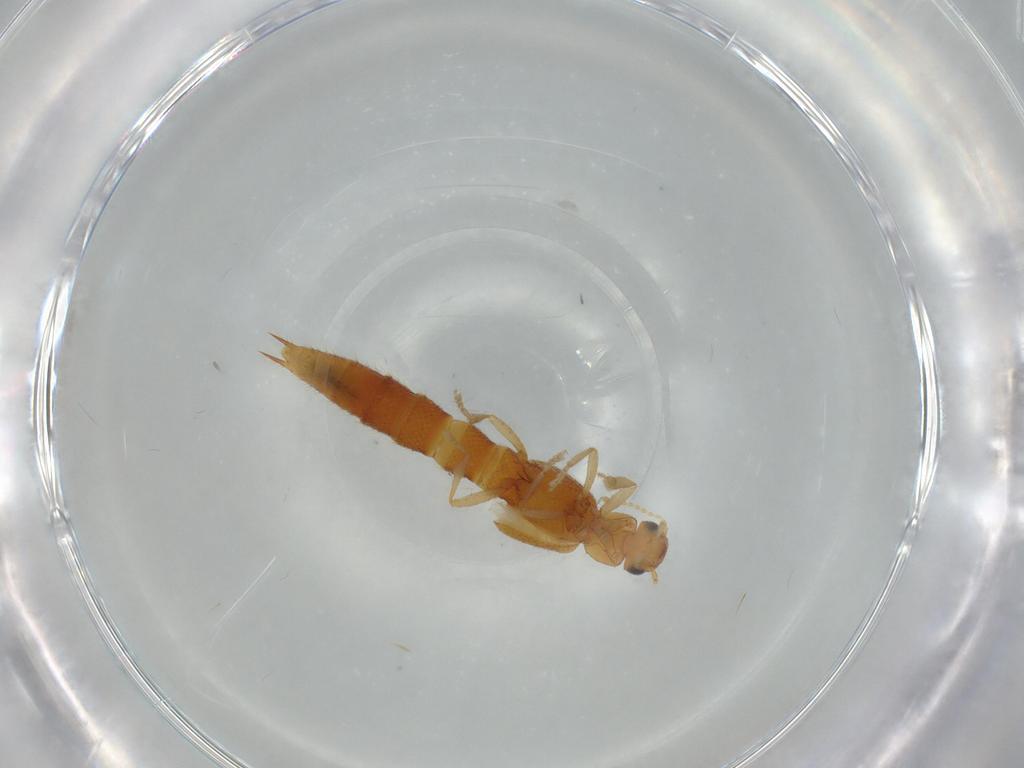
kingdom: Animalia
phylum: Arthropoda
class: Insecta
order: Coleoptera
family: Staphylinidae
